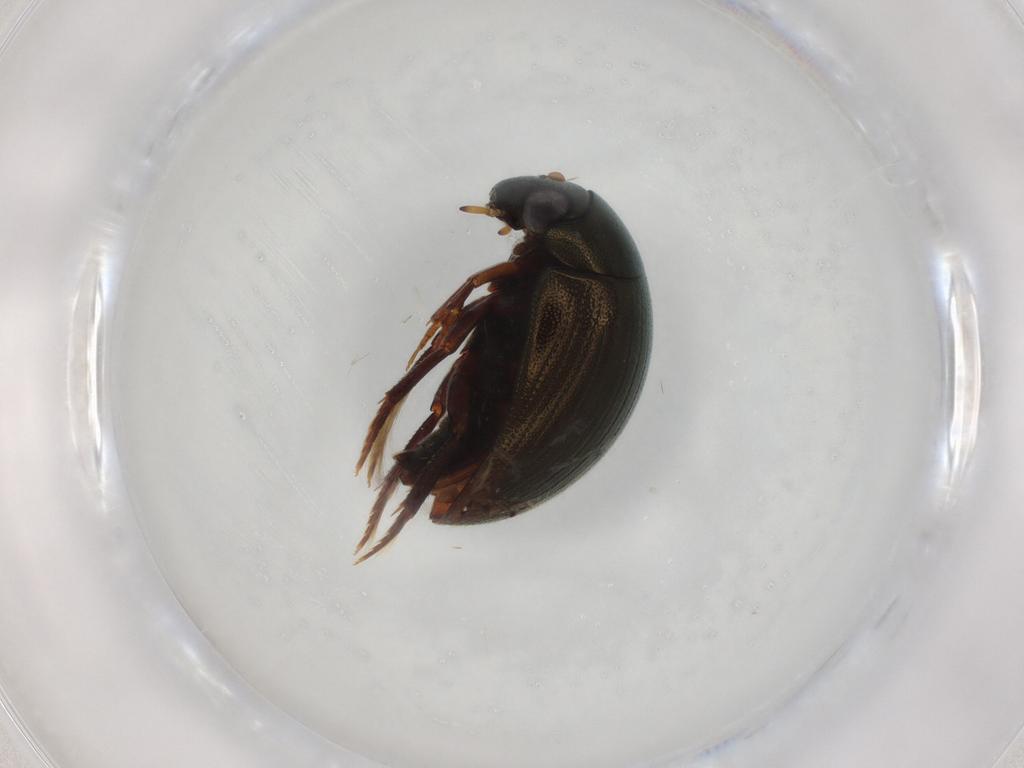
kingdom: Animalia
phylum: Arthropoda
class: Insecta
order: Coleoptera
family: Hydrophilidae
